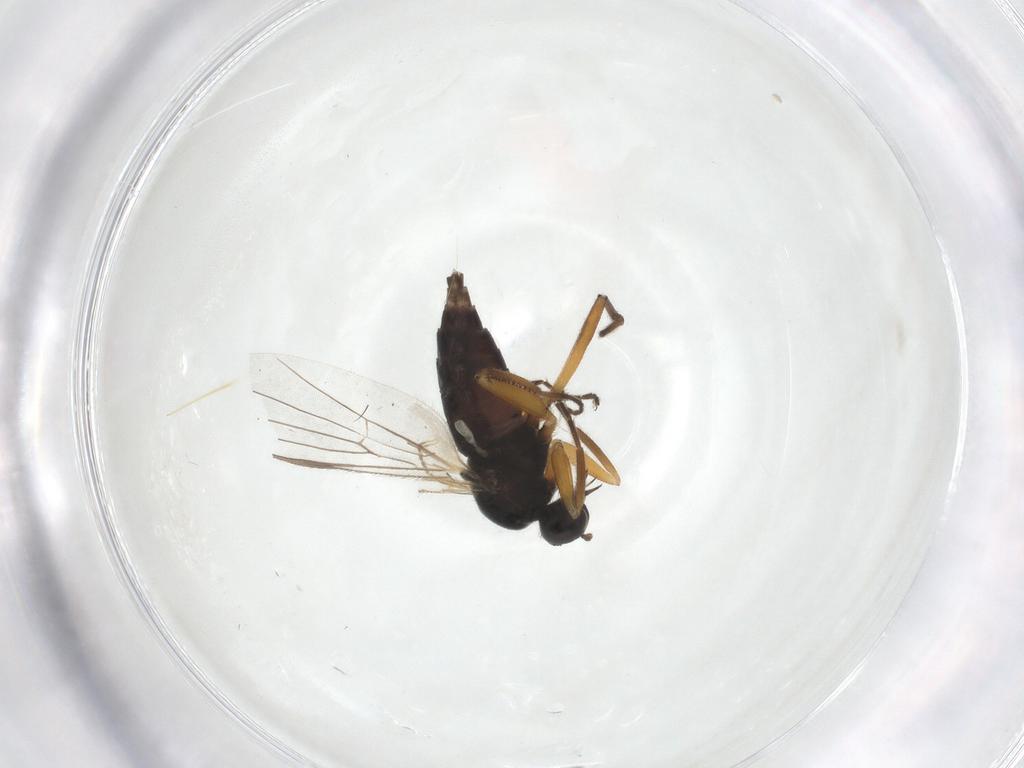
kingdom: Animalia
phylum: Arthropoda
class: Insecta
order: Diptera
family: Hybotidae
